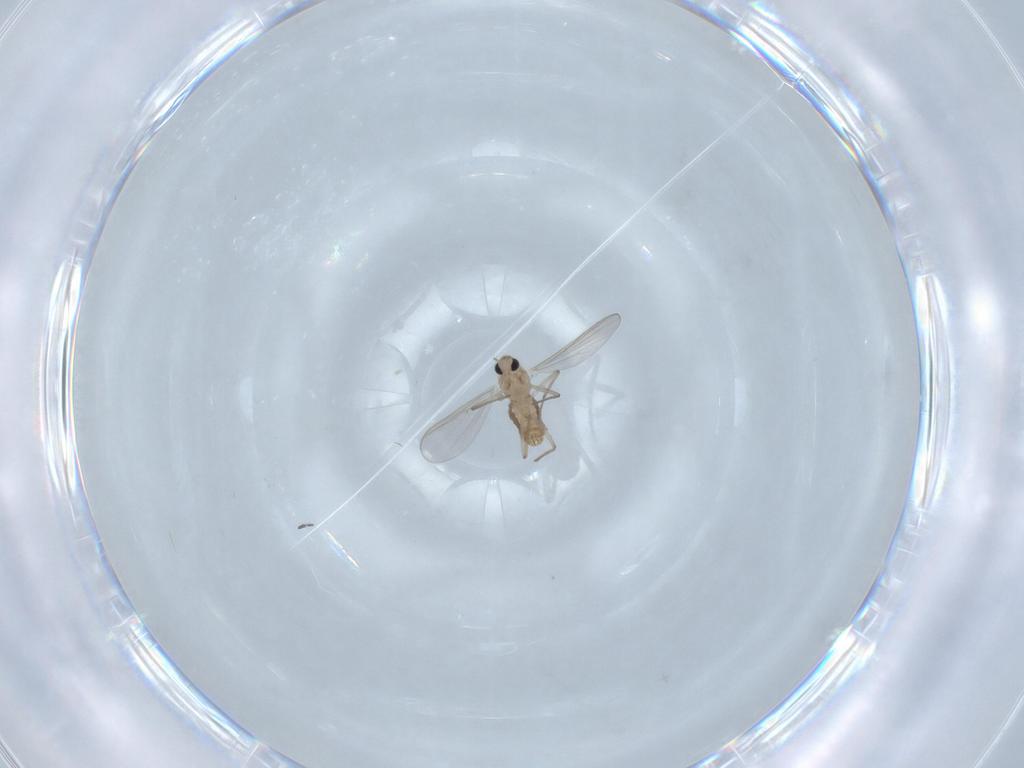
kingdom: Animalia
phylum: Arthropoda
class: Insecta
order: Diptera
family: Chironomidae
